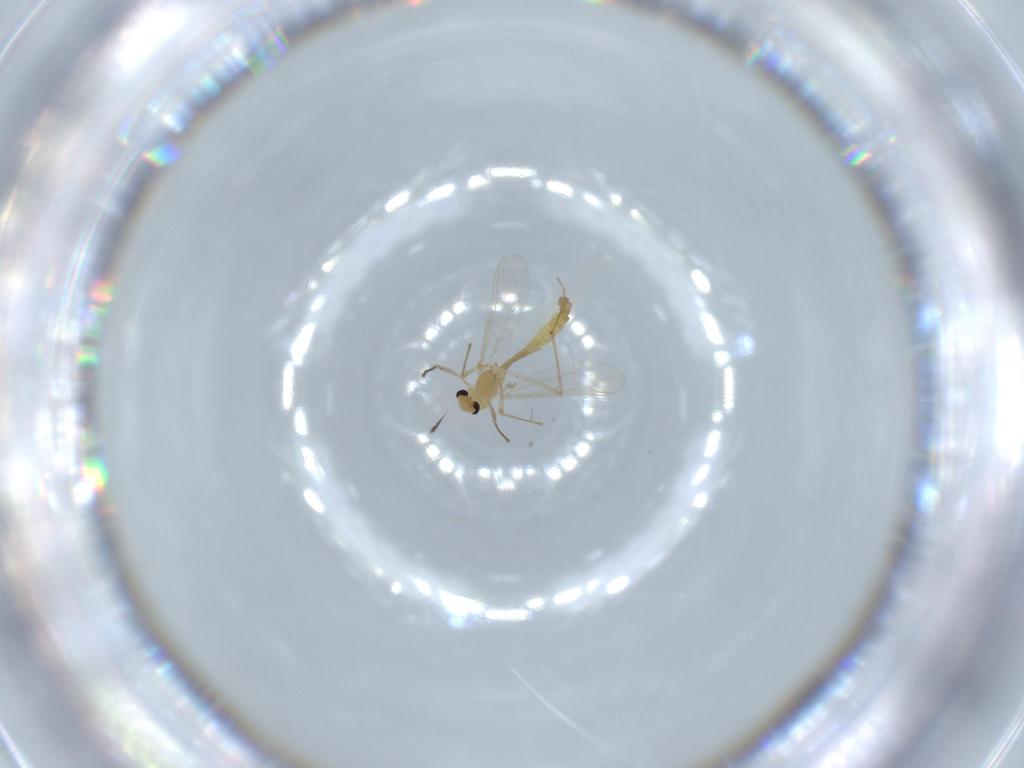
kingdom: Animalia
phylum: Arthropoda
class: Insecta
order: Diptera
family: Chironomidae
